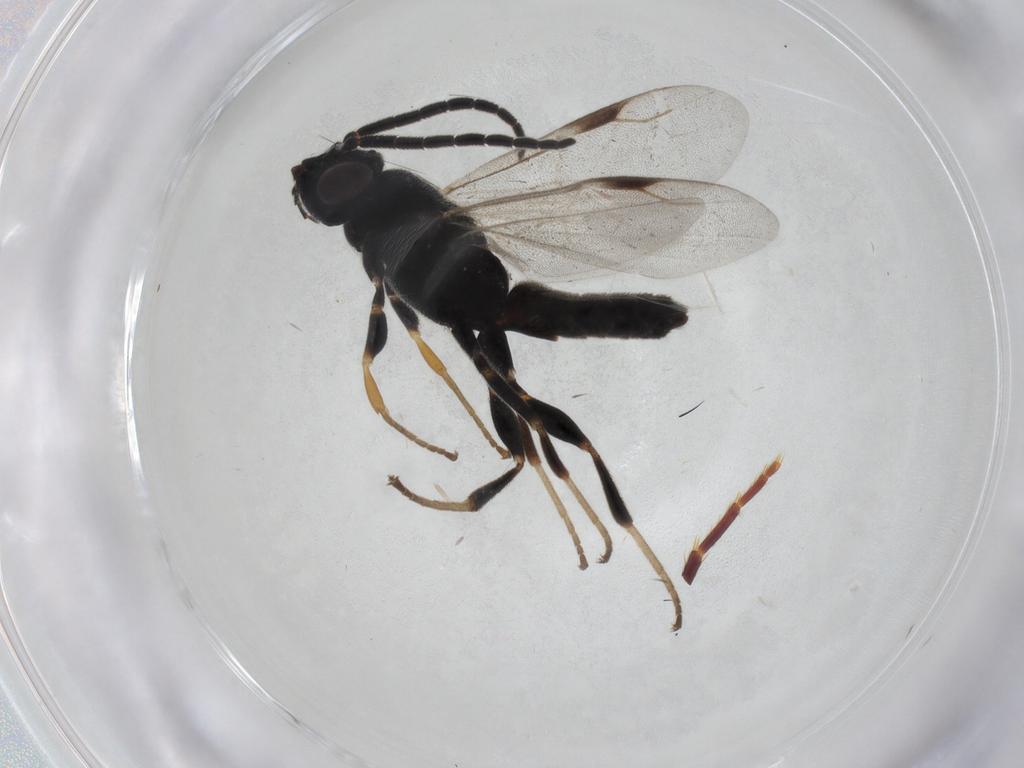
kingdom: Animalia
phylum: Arthropoda
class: Insecta
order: Hymenoptera
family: Formicidae
